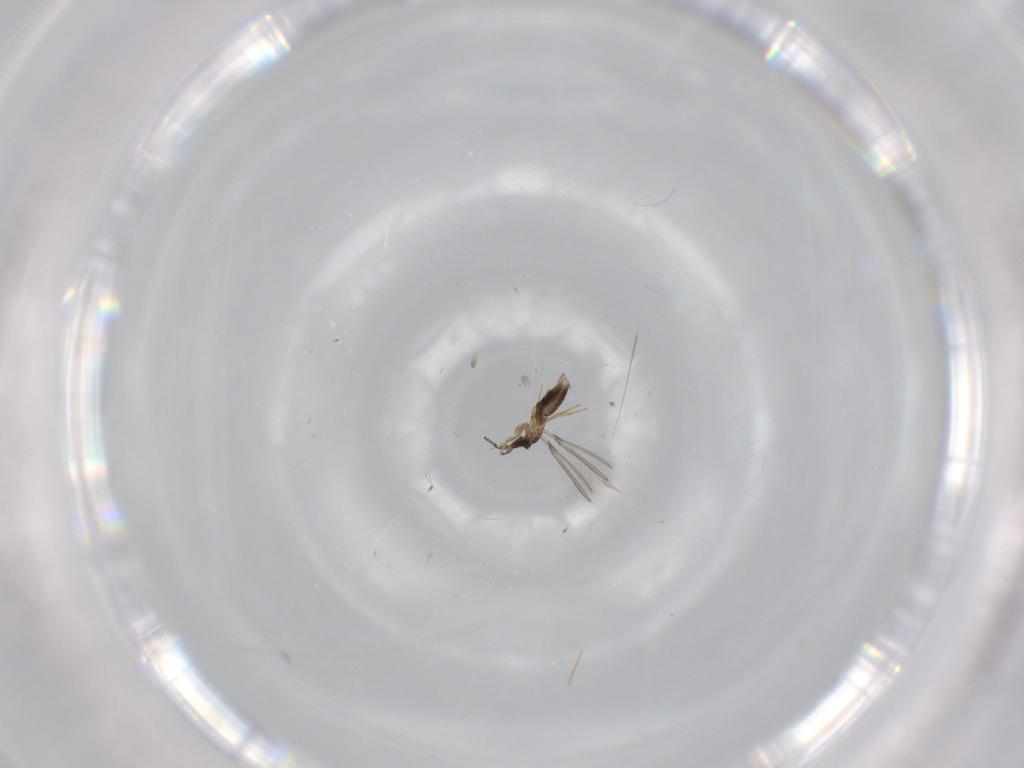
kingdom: Animalia
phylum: Arthropoda
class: Insecta
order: Hymenoptera
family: Mymaridae
